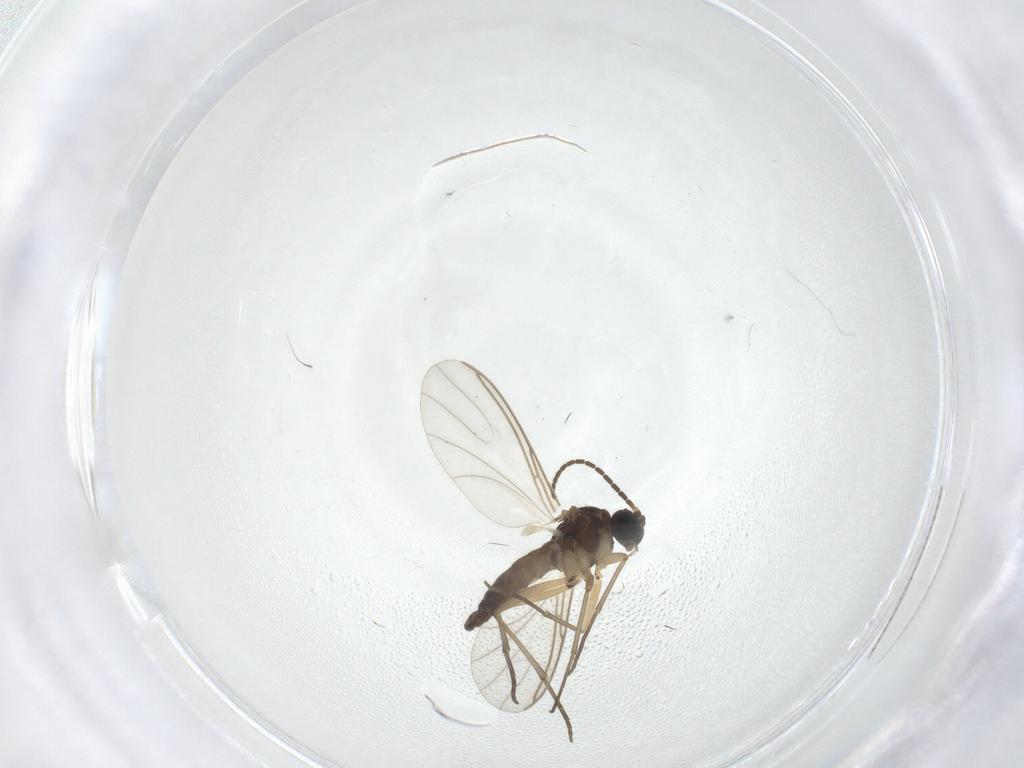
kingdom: Animalia
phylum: Arthropoda
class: Insecta
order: Diptera
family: Sciaridae
